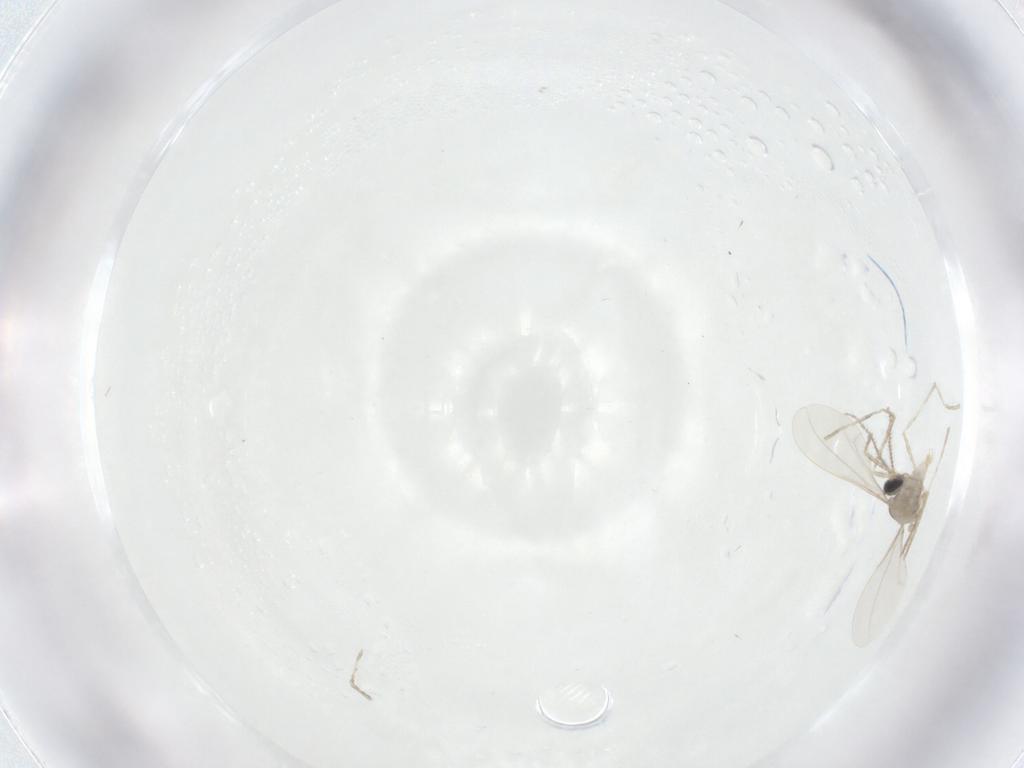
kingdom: Animalia
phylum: Arthropoda
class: Insecta
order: Diptera
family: Cecidomyiidae
